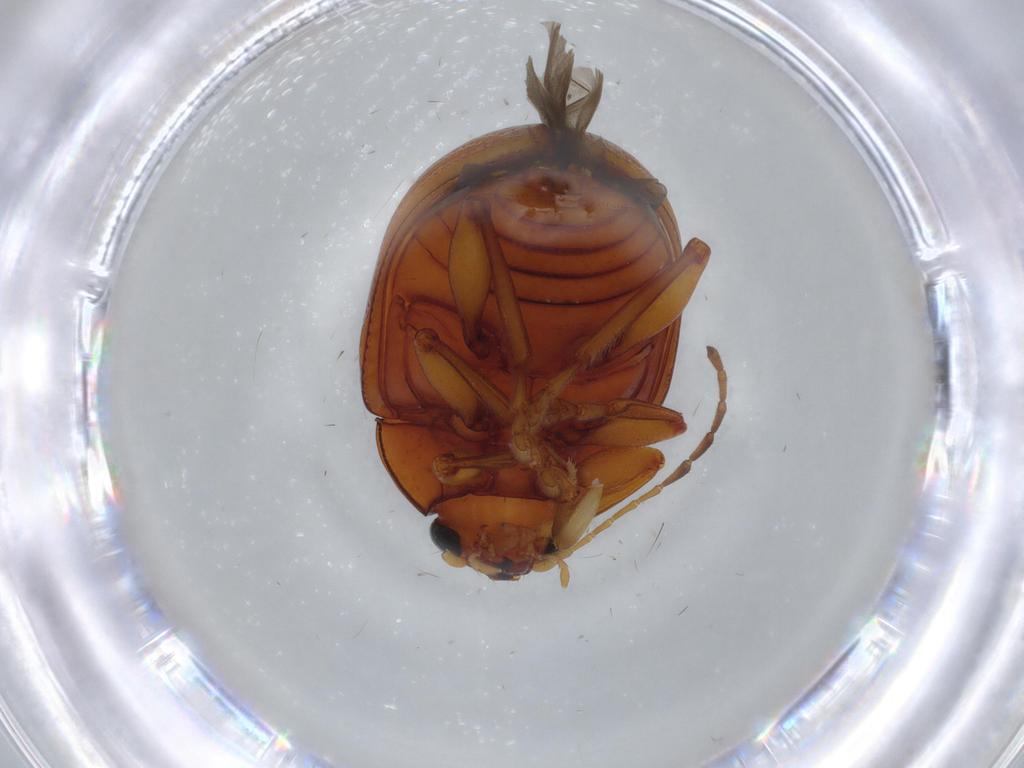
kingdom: Animalia
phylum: Arthropoda
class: Insecta
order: Coleoptera
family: Chrysomelidae
